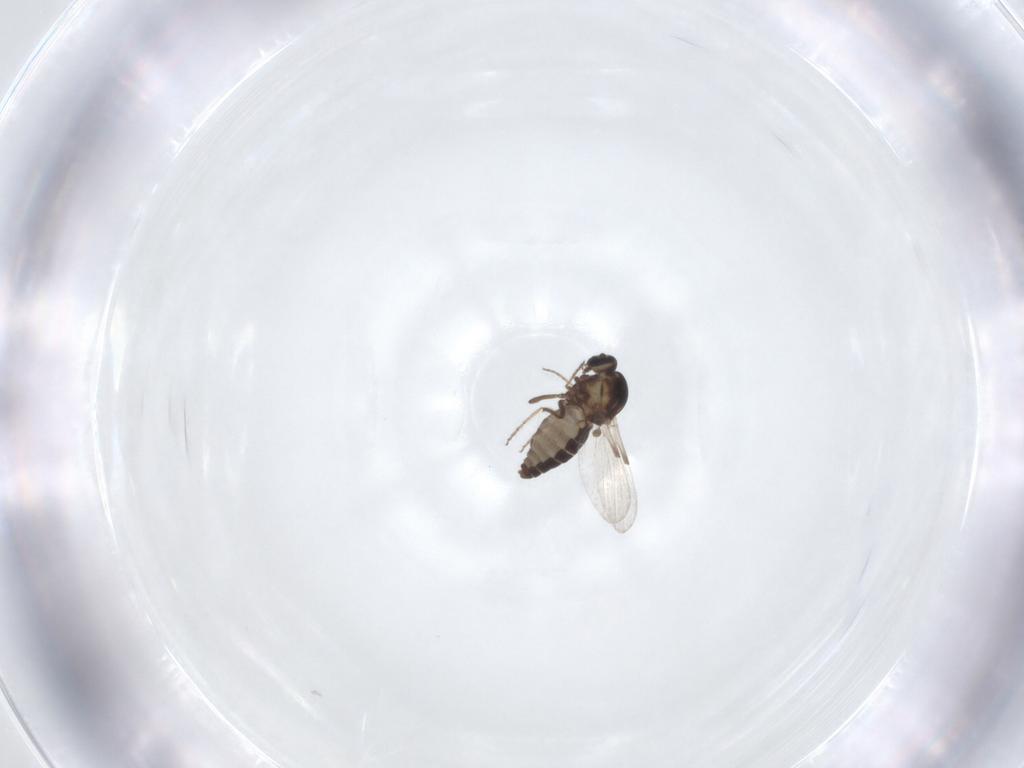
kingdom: Animalia
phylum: Arthropoda
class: Insecta
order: Diptera
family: Ceratopogonidae
